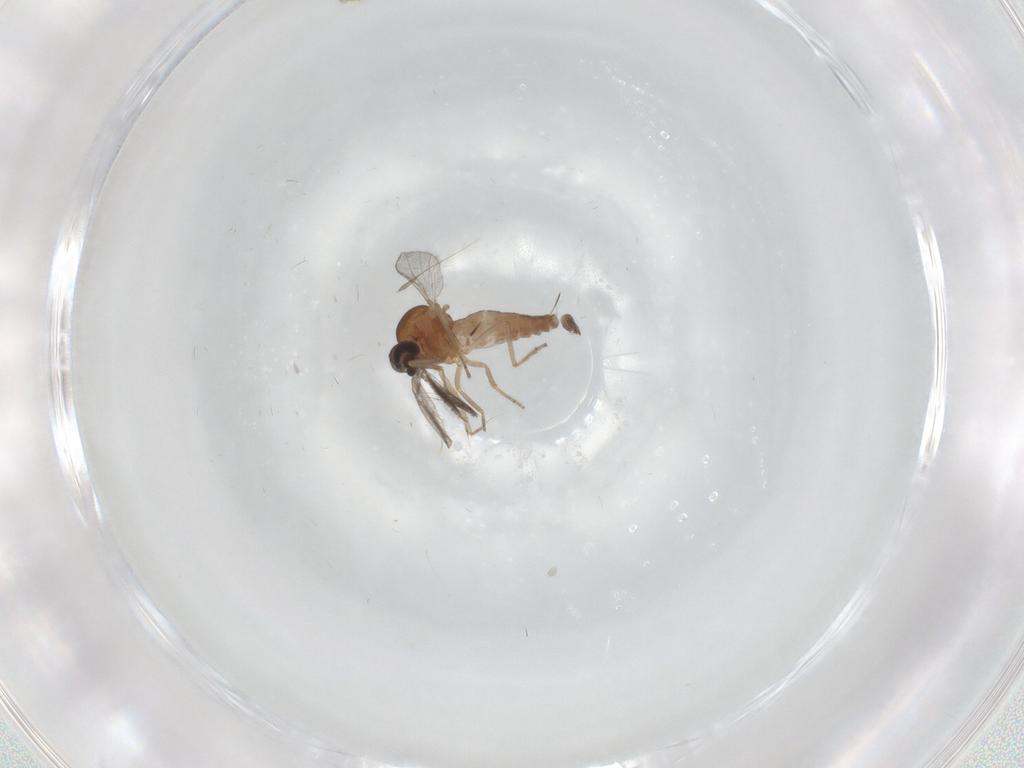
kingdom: Animalia
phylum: Arthropoda
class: Insecta
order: Diptera
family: Ceratopogonidae
